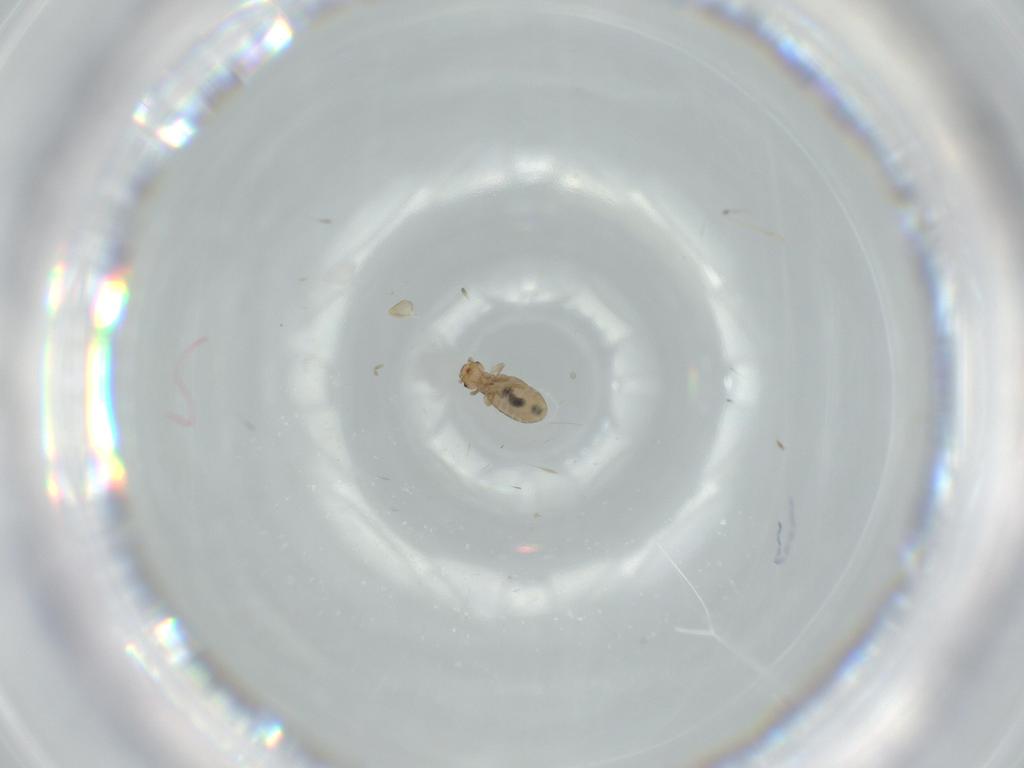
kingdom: Animalia
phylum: Arthropoda
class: Insecta
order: Psocodea
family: Liposcelididae
